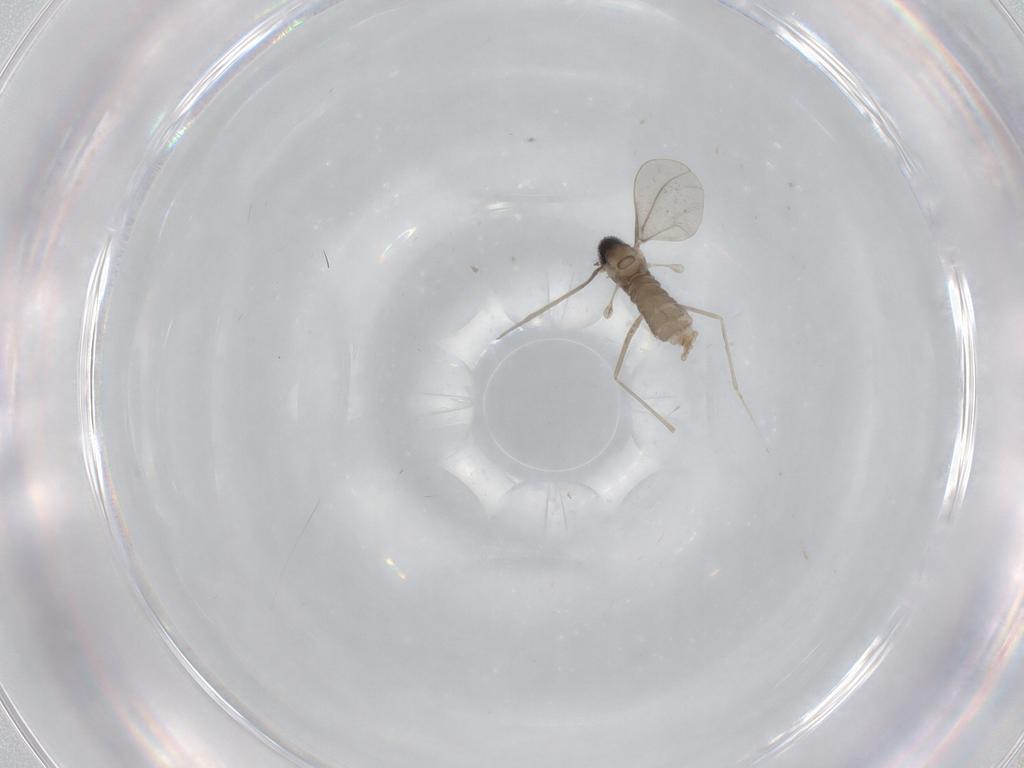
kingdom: Animalia
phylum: Arthropoda
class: Insecta
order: Diptera
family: Cecidomyiidae
